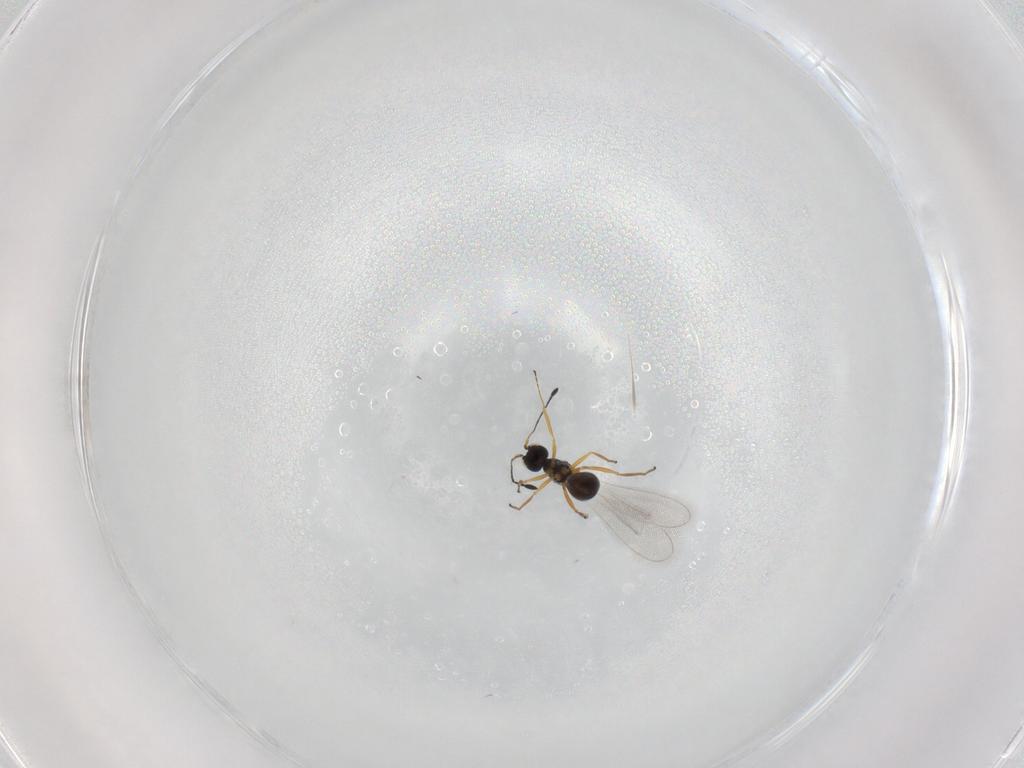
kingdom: Animalia
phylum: Arthropoda
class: Insecta
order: Hymenoptera
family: Mymaridae
